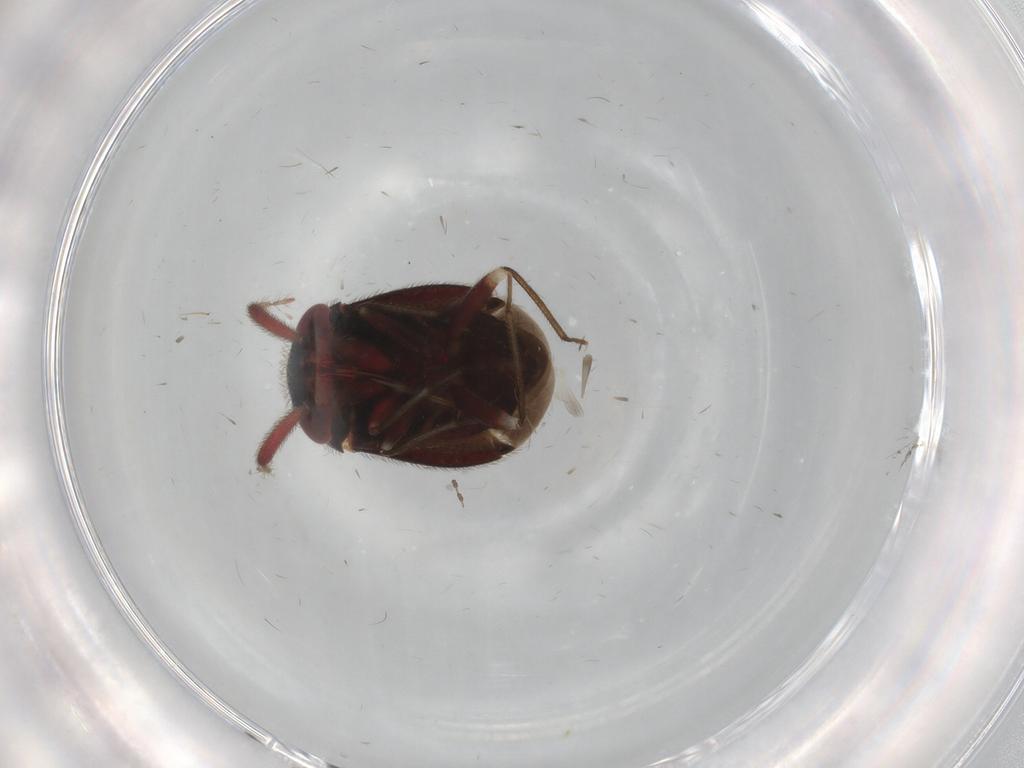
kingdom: Animalia
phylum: Arthropoda
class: Insecta
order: Hemiptera
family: Miridae
